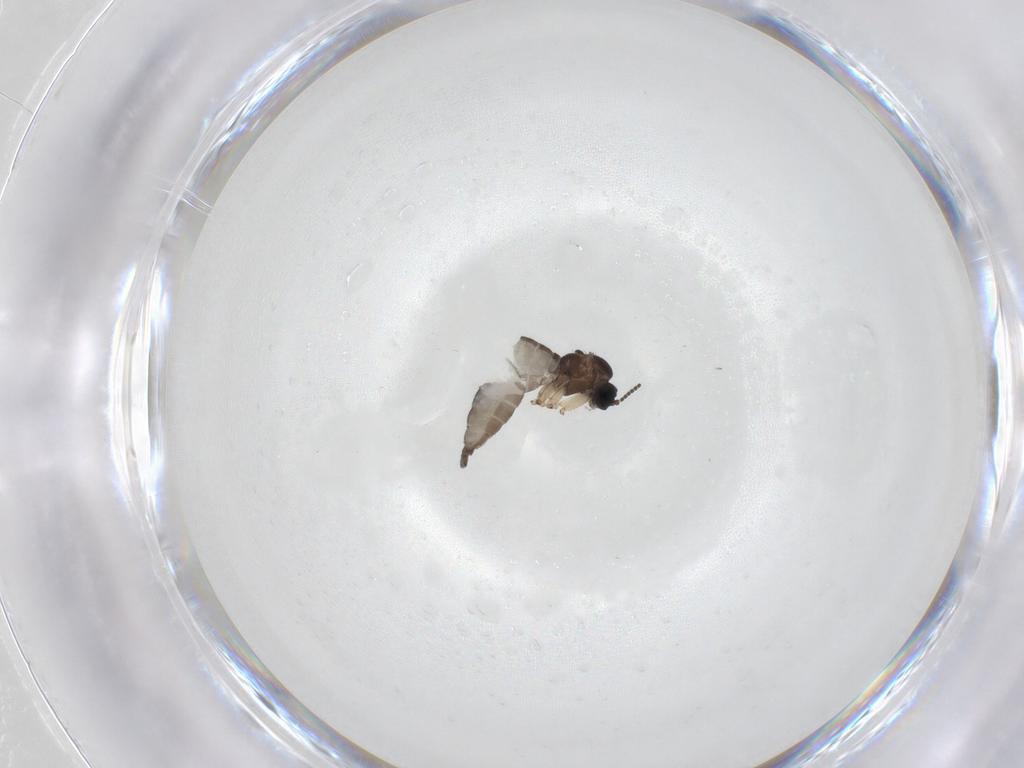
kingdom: Animalia
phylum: Arthropoda
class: Insecta
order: Diptera
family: Sciaridae
